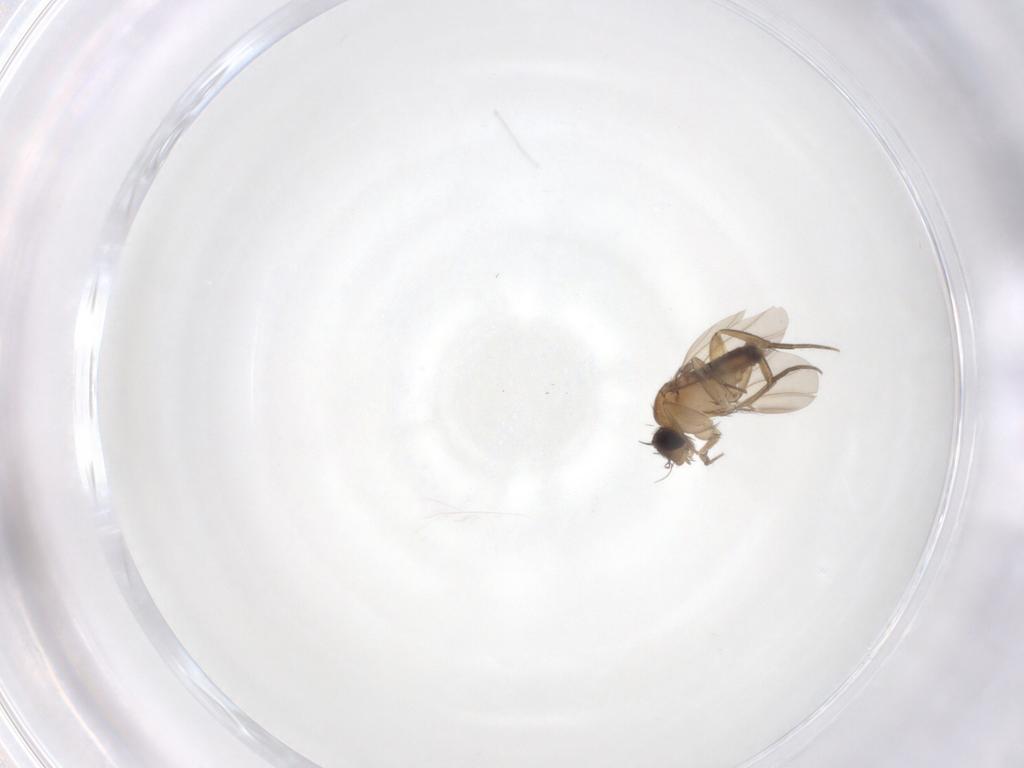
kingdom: Animalia
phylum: Arthropoda
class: Insecta
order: Diptera
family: Phoridae
